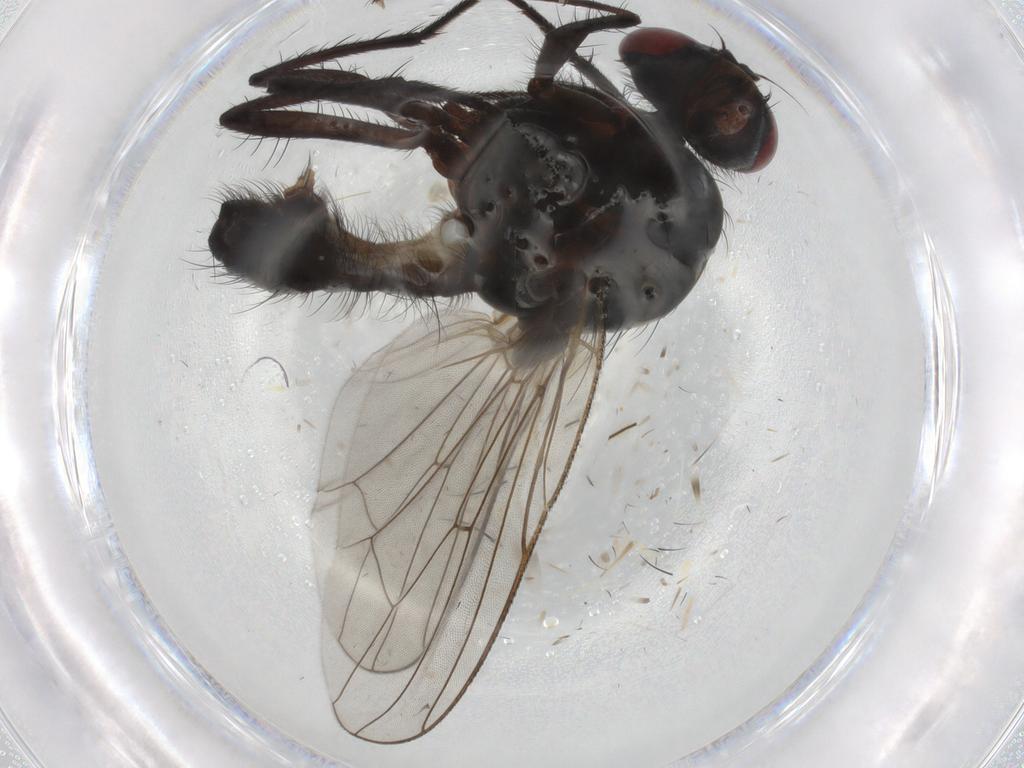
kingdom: Animalia
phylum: Arthropoda
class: Insecta
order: Diptera
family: Anthomyiidae
